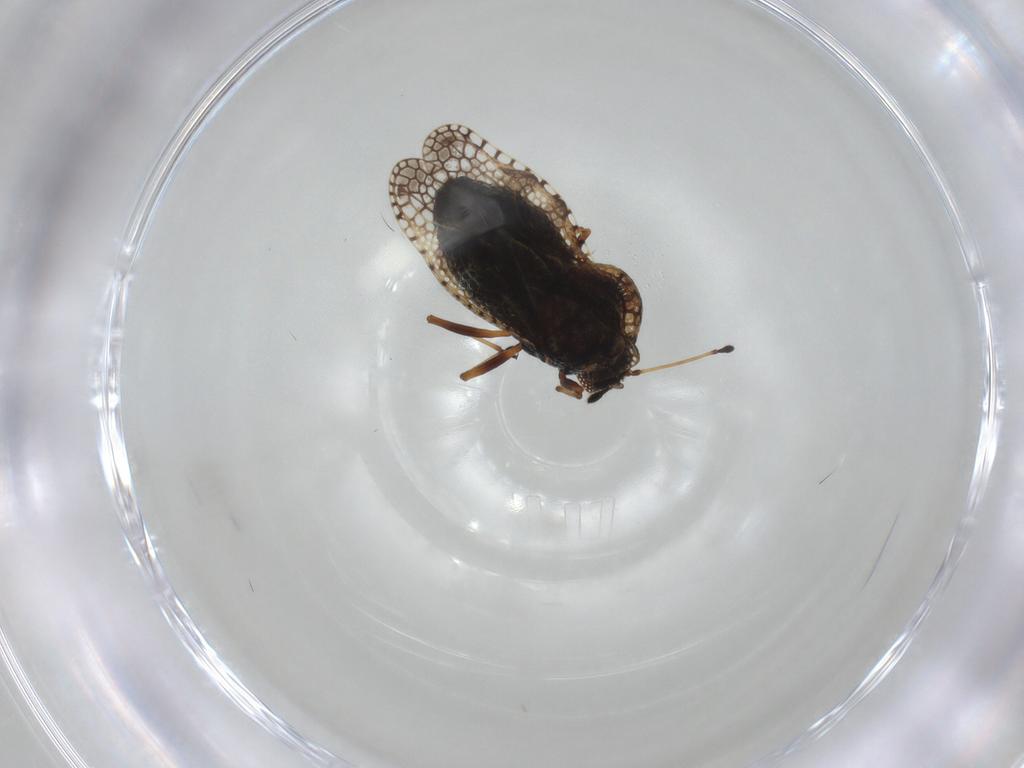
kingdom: Animalia
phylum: Arthropoda
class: Insecta
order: Hemiptera
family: Tingidae
